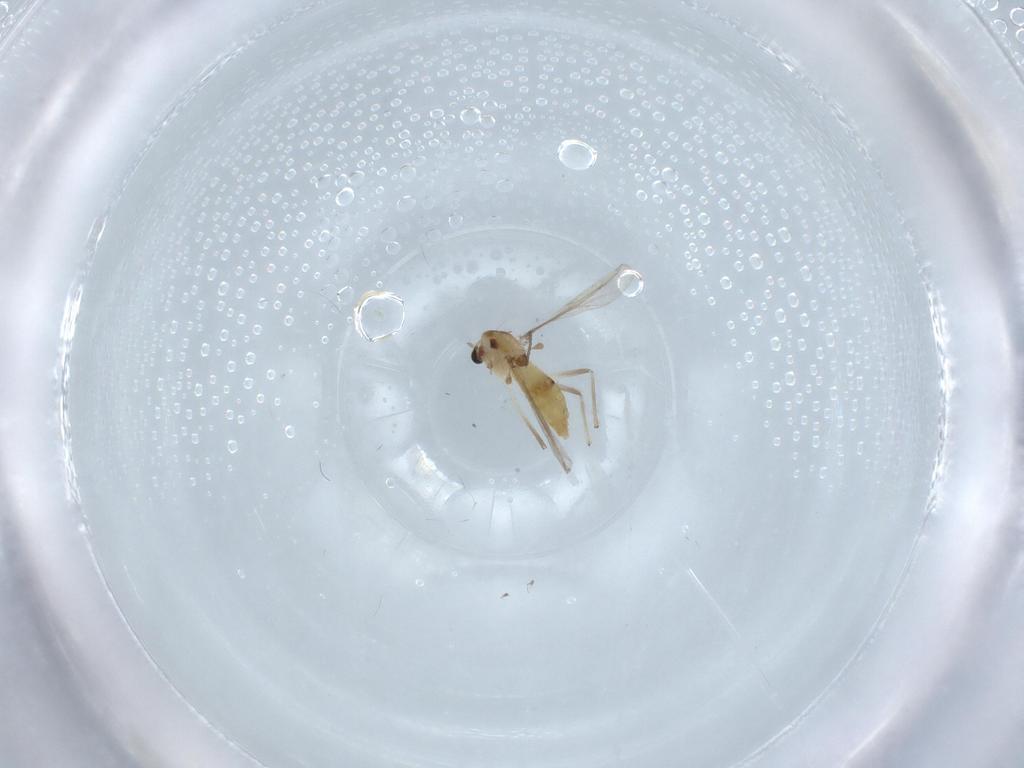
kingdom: Animalia
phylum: Arthropoda
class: Insecta
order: Diptera
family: Chironomidae
